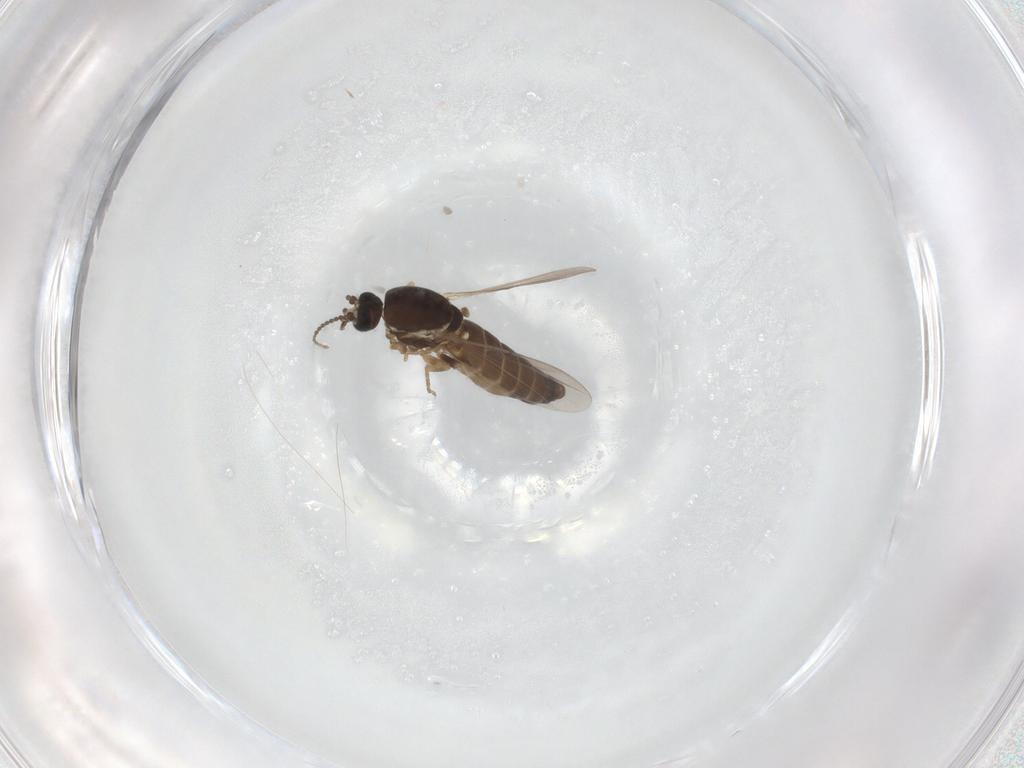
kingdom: Animalia
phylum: Arthropoda
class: Insecta
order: Diptera
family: Ceratopogonidae
